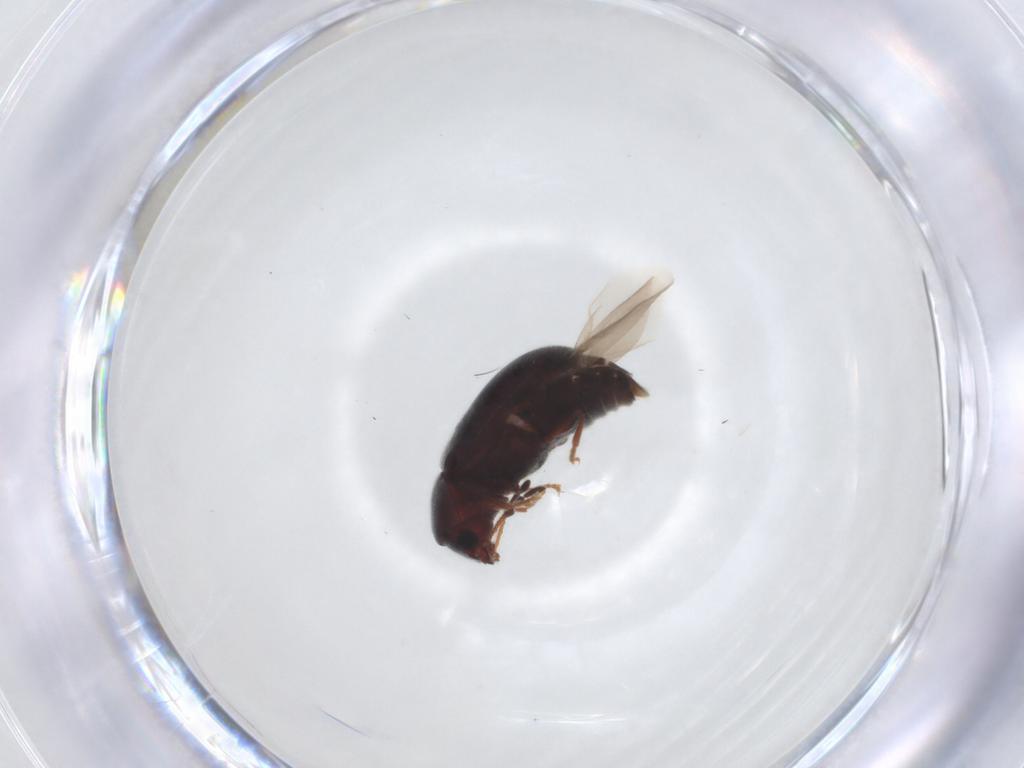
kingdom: Animalia
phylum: Arthropoda
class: Insecta
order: Coleoptera
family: Ptinidae
